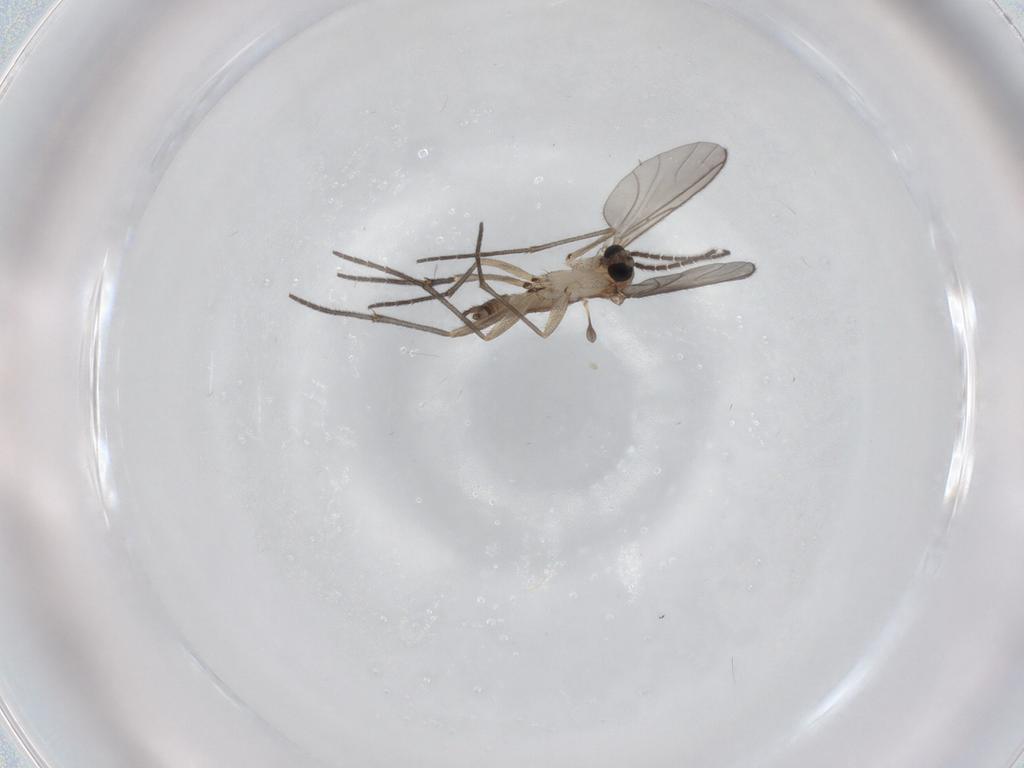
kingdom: Animalia
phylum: Arthropoda
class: Insecta
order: Diptera
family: Sciaridae
